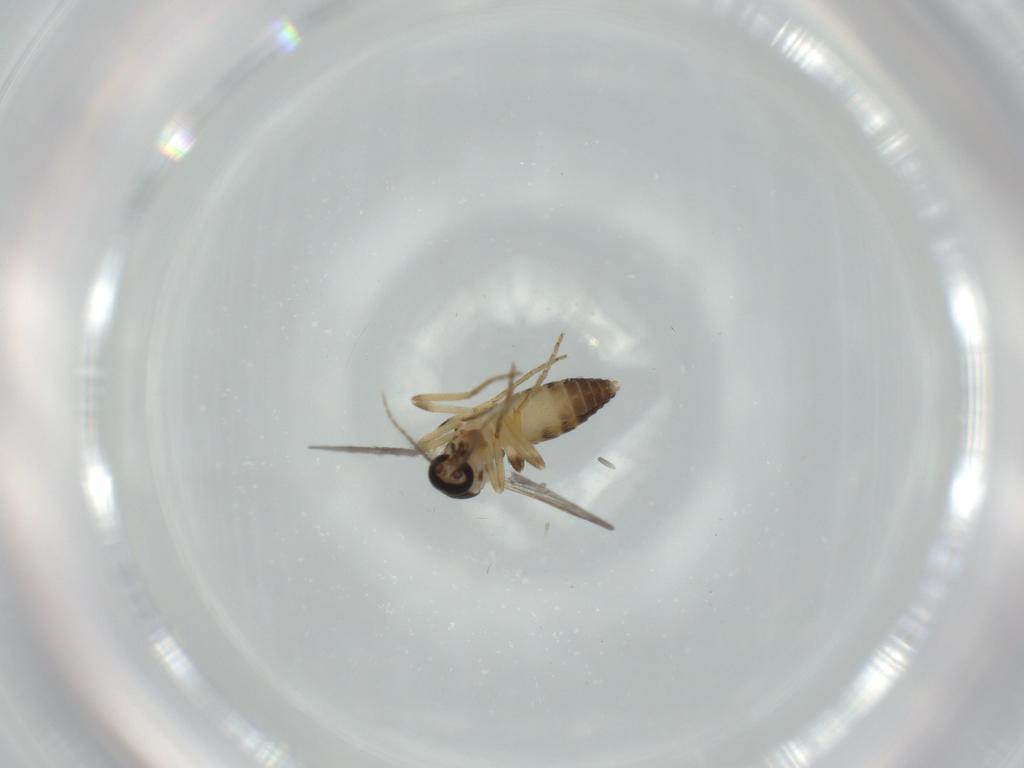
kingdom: Animalia
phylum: Arthropoda
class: Insecta
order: Diptera
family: Ceratopogonidae
